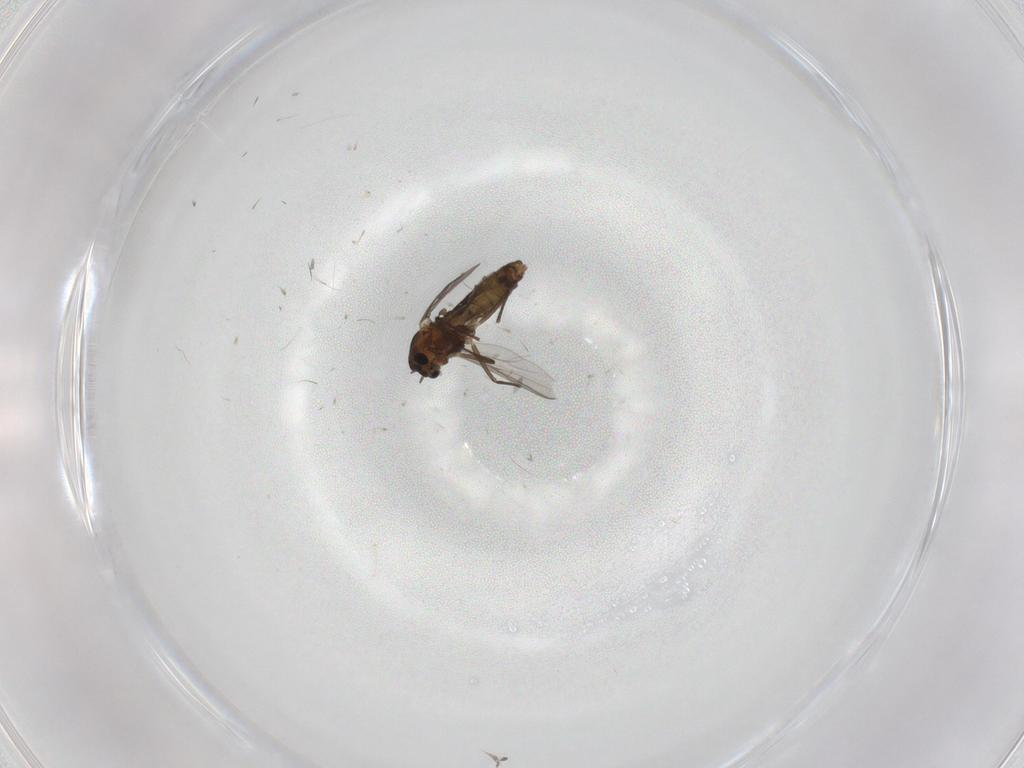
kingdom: Animalia
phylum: Arthropoda
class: Insecta
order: Diptera
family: Chironomidae
